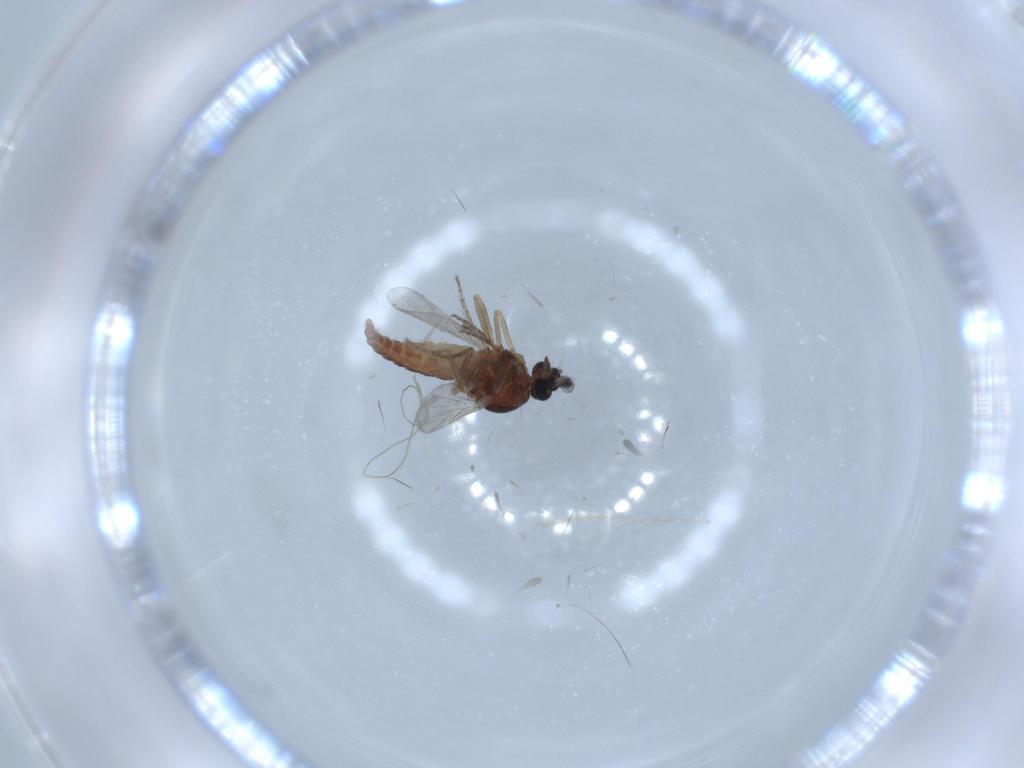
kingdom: Animalia
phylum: Arthropoda
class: Insecta
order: Diptera
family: Ceratopogonidae
